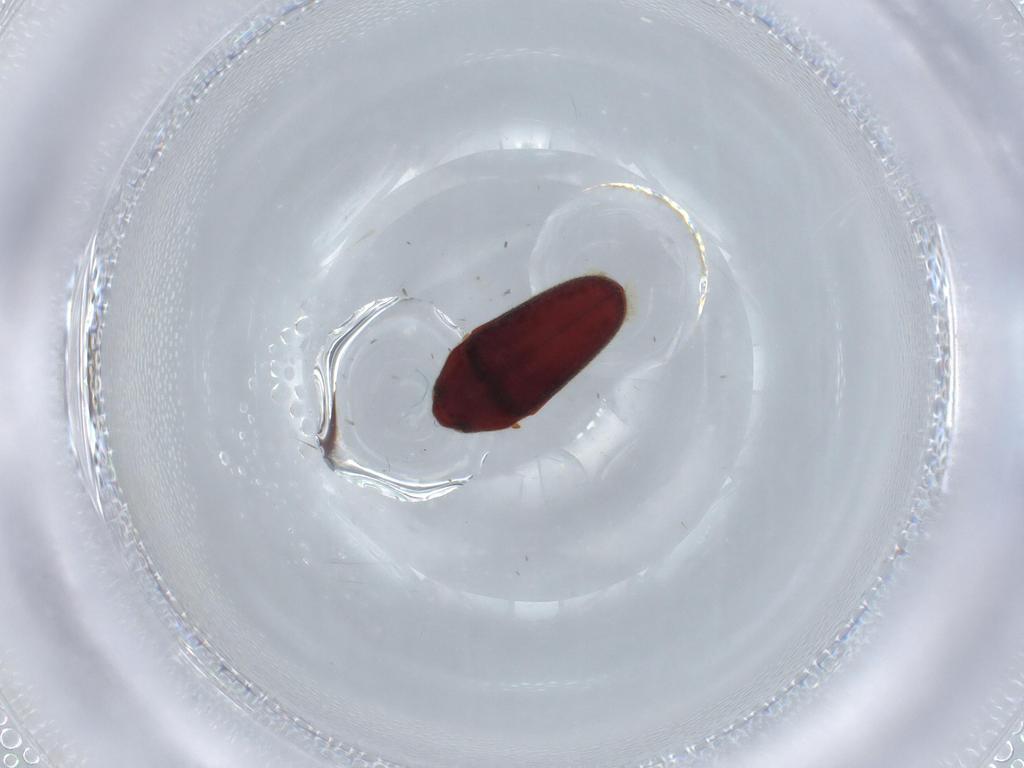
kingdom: Animalia
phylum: Arthropoda
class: Insecta
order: Coleoptera
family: Throscidae
